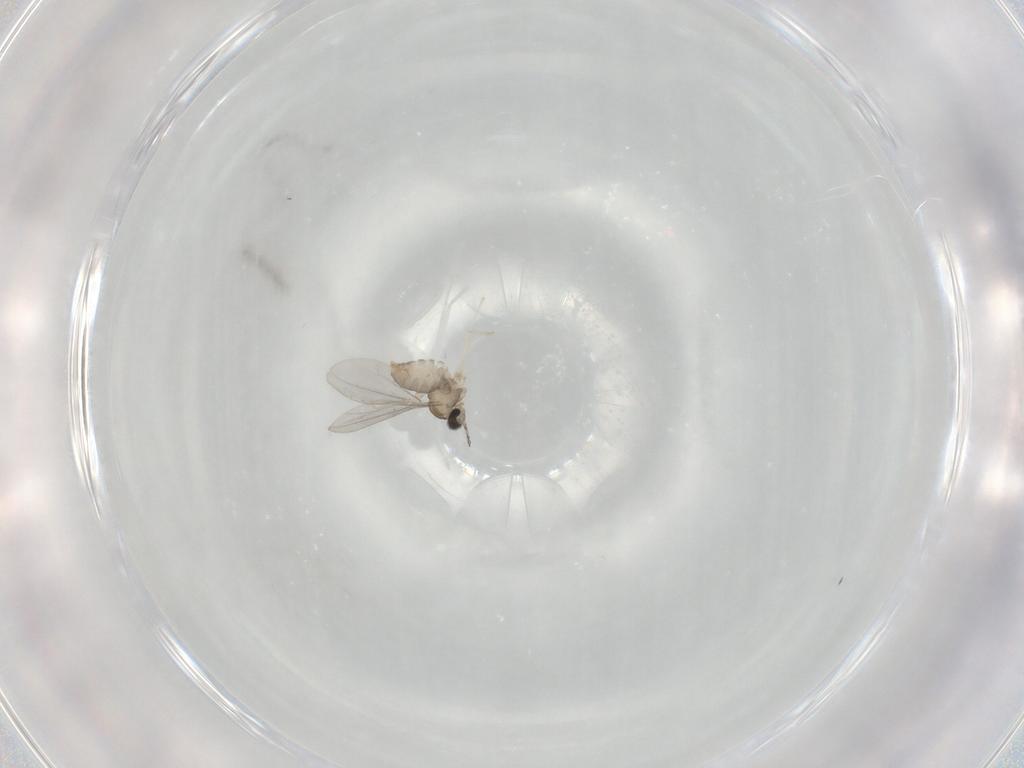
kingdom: Animalia
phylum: Arthropoda
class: Insecta
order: Diptera
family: Cecidomyiidae
